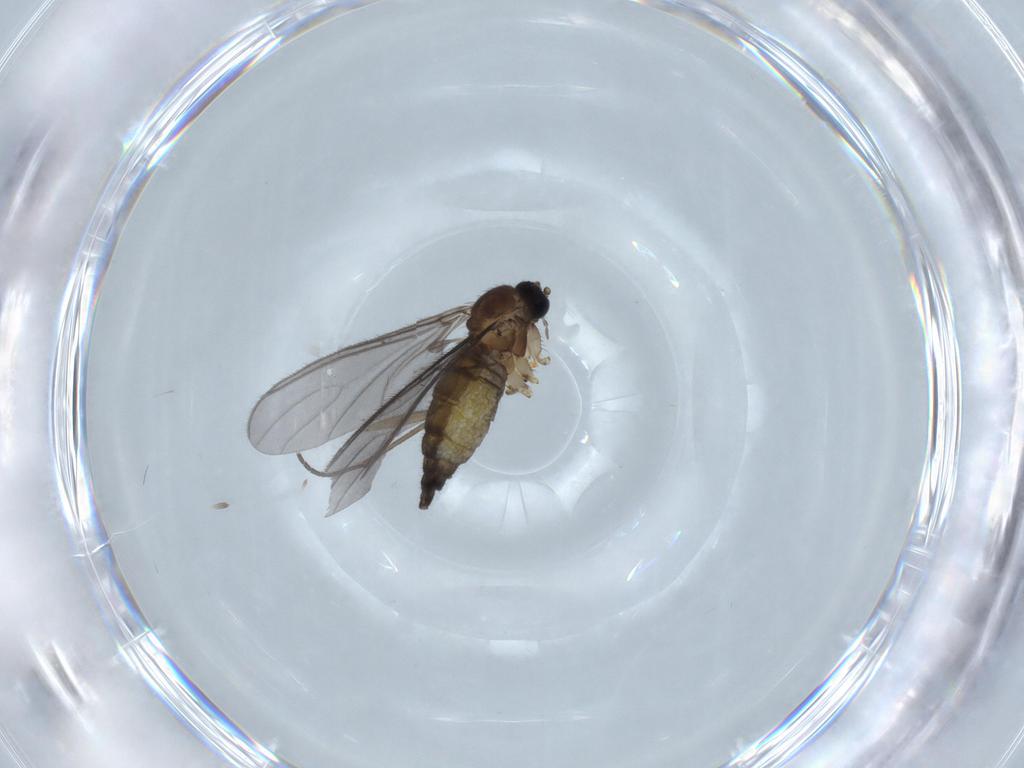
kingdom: Animalia
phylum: Arthropoda
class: Insecta
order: Diptera
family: Sciaridae
